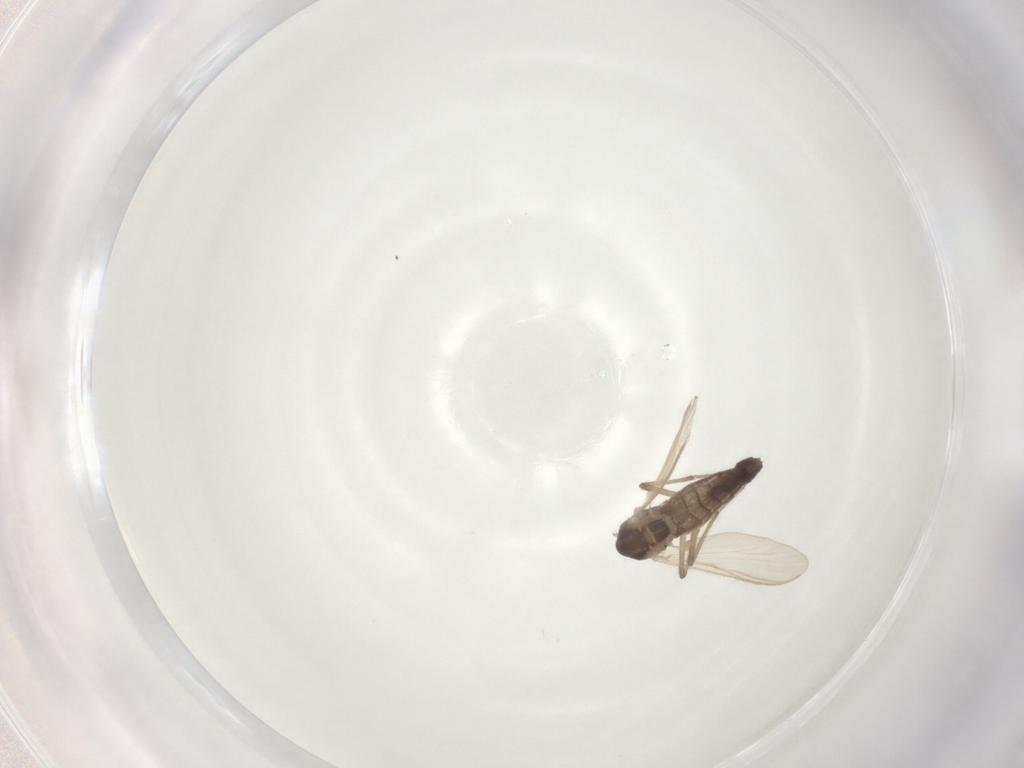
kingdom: Animalia
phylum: Arthropoda
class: Insecta
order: Diptera
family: Chironomidae
